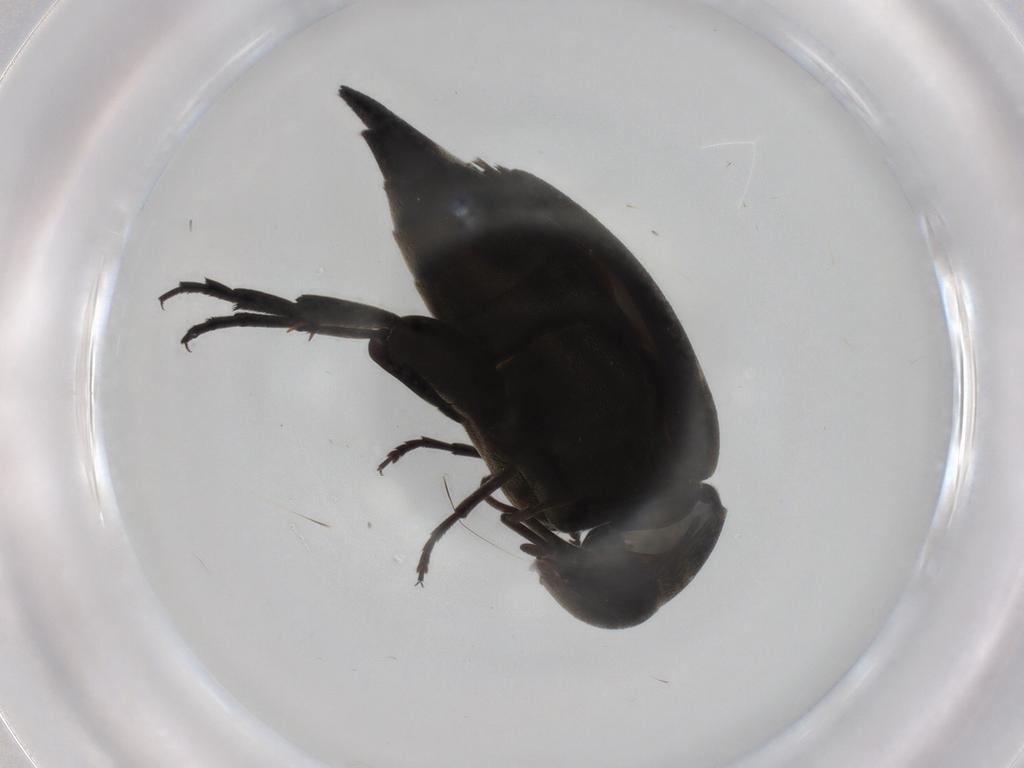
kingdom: Animalia
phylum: Arthropoda
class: Insecta
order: Coleoptera
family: Mordellidae
